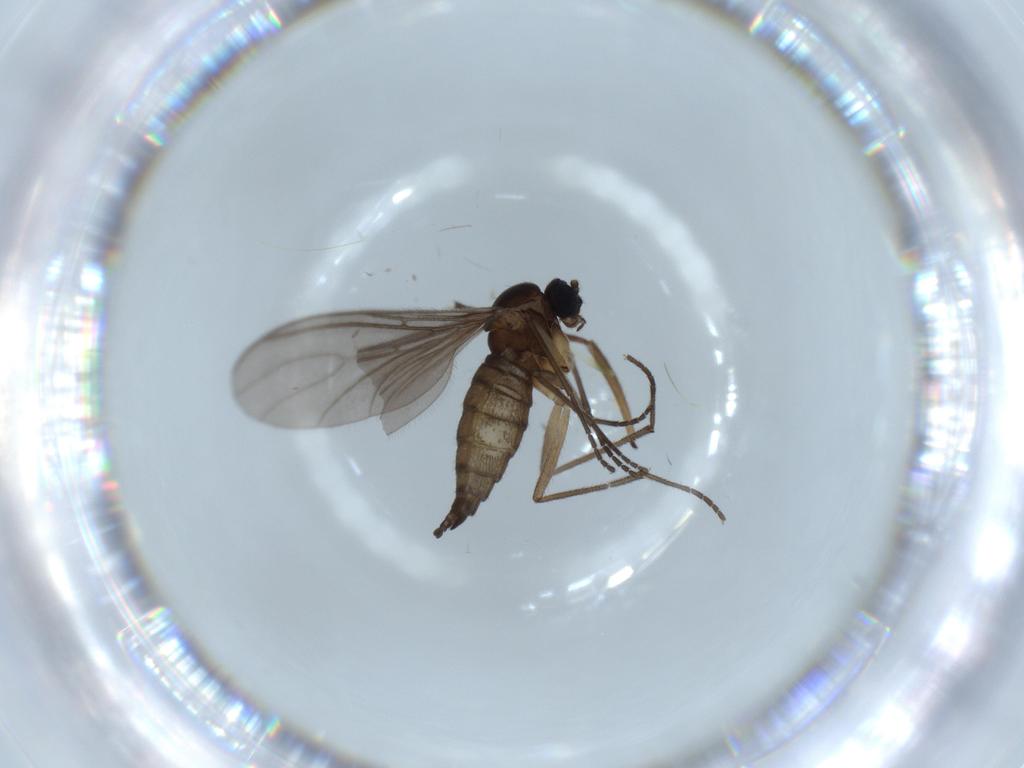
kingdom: Animalia
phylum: Arthropoda
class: Insecta
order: Diptera
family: Sciaridae
